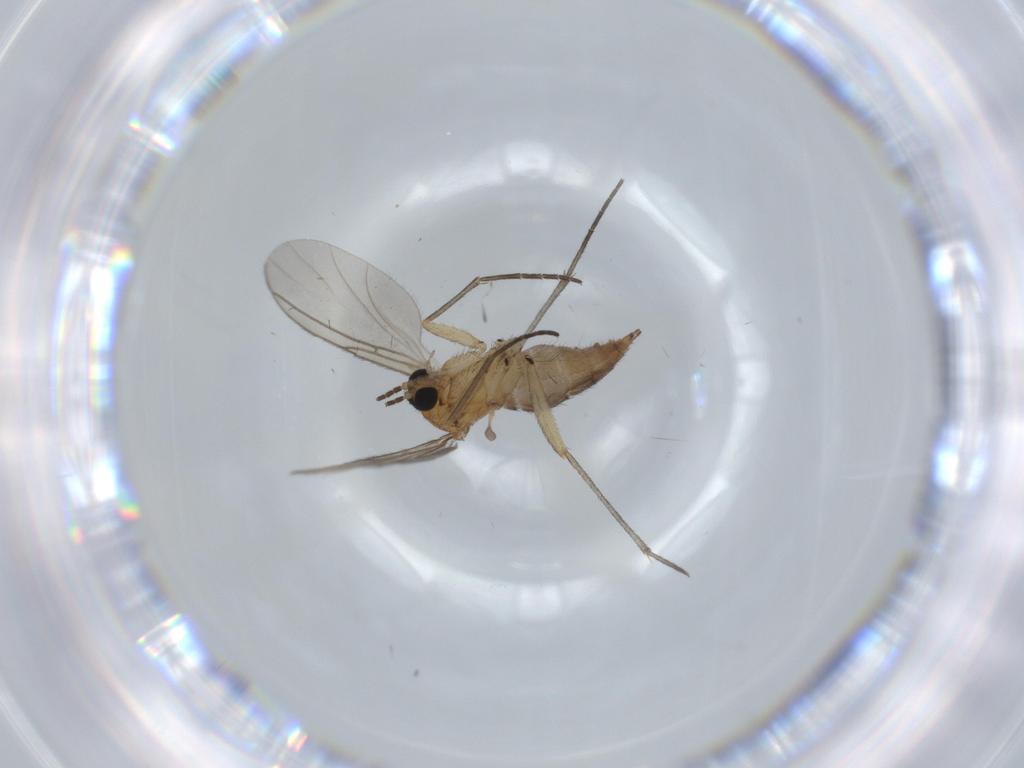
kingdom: Animalia
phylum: Arthropoda
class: Insecta
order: Diptera
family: Sciaridae
